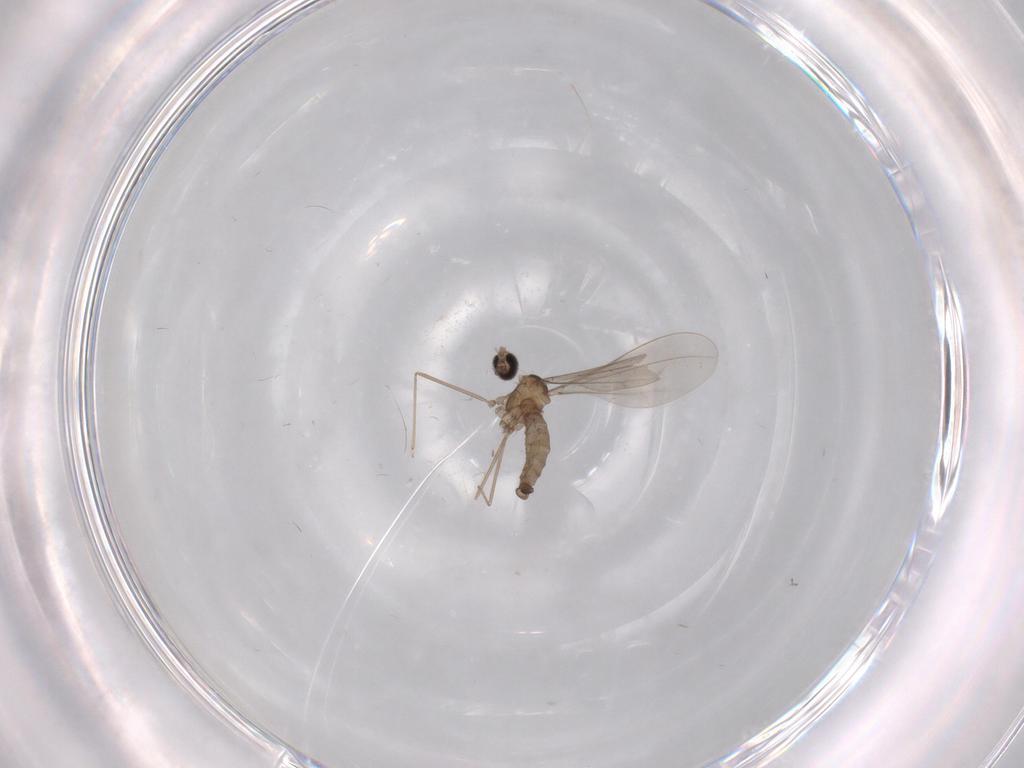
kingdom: Animalia
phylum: Arthropoda
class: Insecta
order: Diptera
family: Cecidomyiidae
